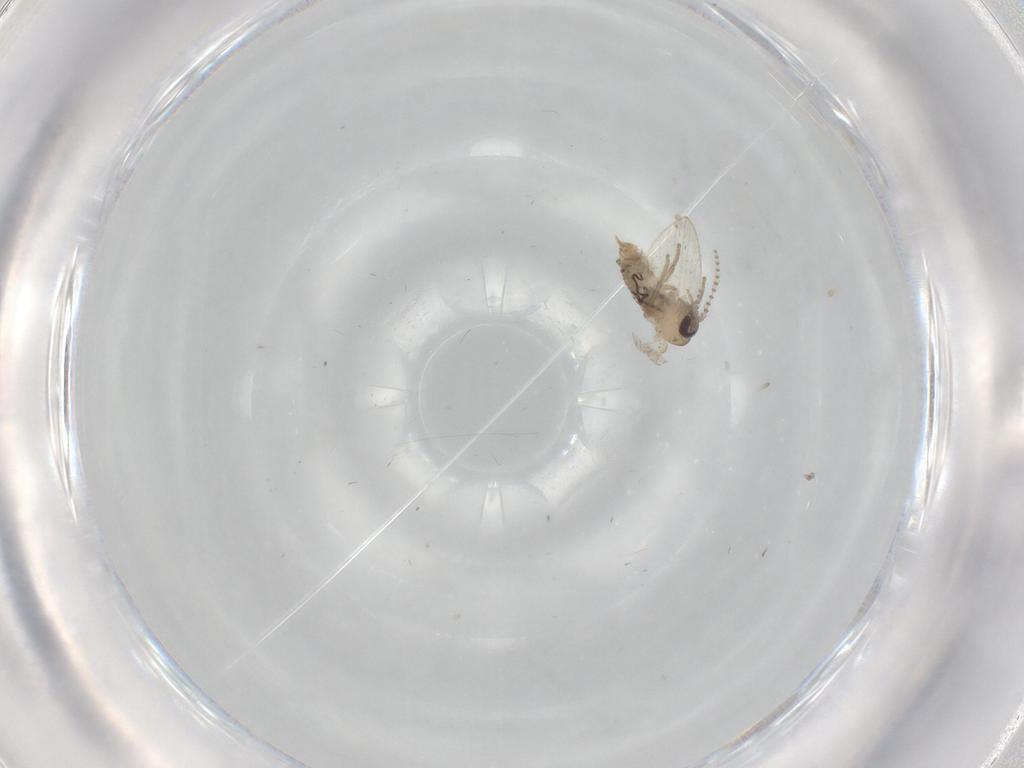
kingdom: Animalia
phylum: Arthropoda
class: Insecta
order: Diptera
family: Psychodidae
